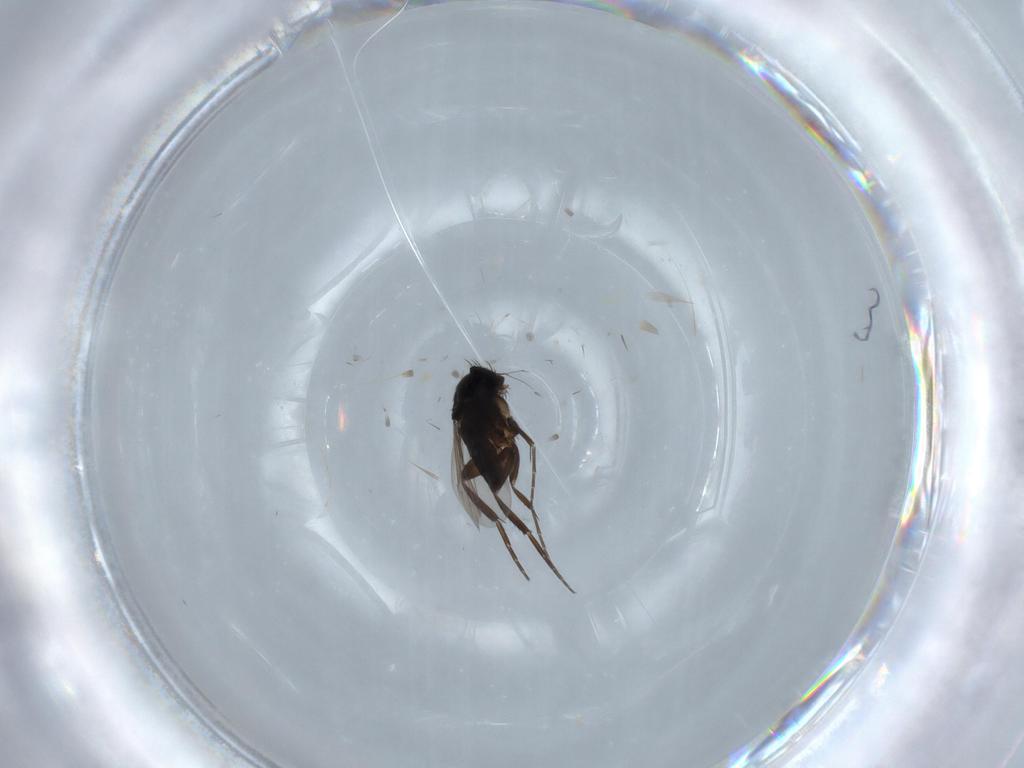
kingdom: Animalia
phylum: Arthropoda
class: Insecta
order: Diptera
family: Phoridae
